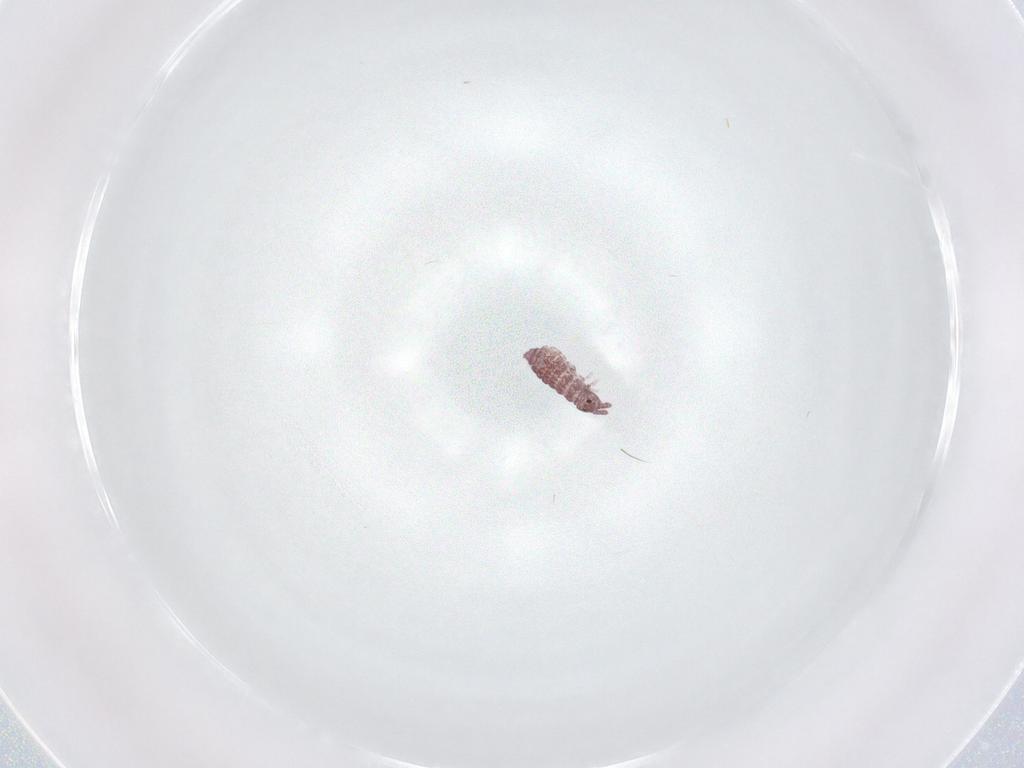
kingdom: Animalia
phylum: Arthropoda
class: Collembola
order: Poduromorpha
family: Hypogastruridae
